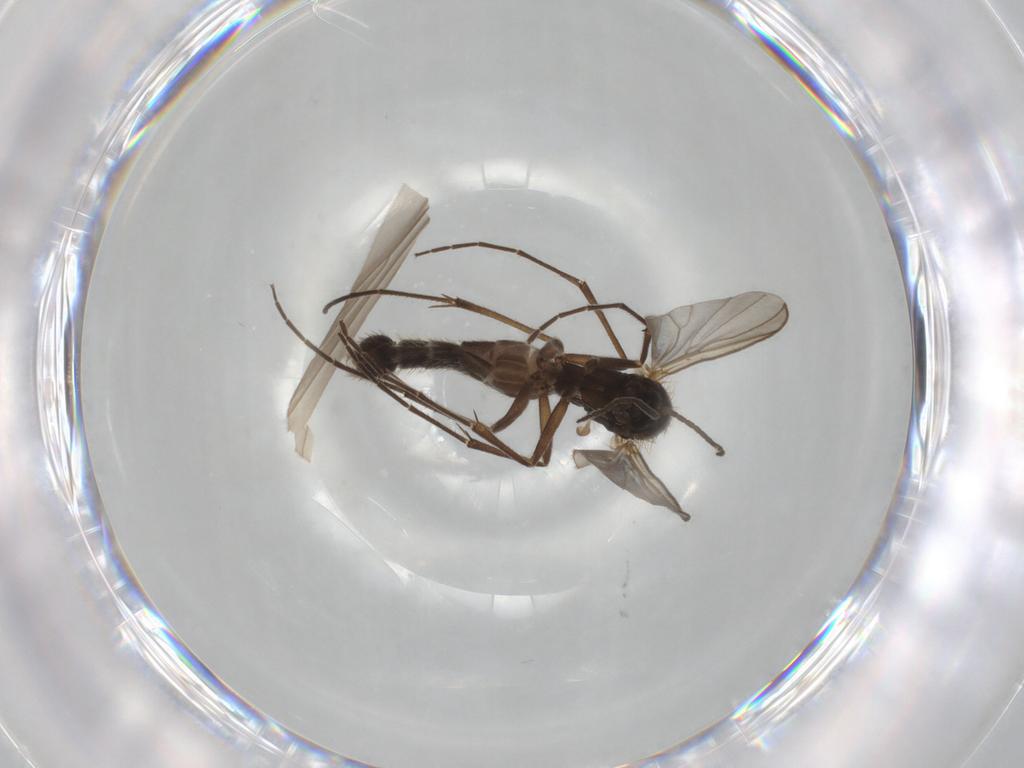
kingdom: Animalia
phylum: Arthropoda
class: Insecta
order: Diptera
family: Mycetophilidae
